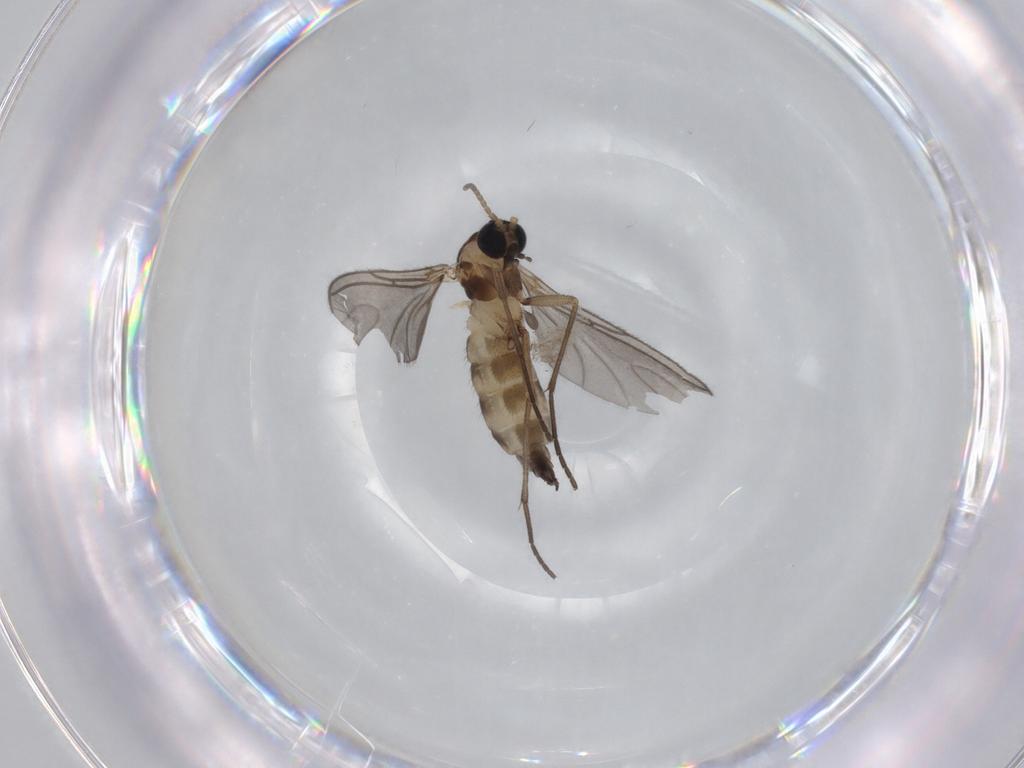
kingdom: Animalia
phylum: Arthropoda
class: Insecta
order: Diptera
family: Sciaridae
